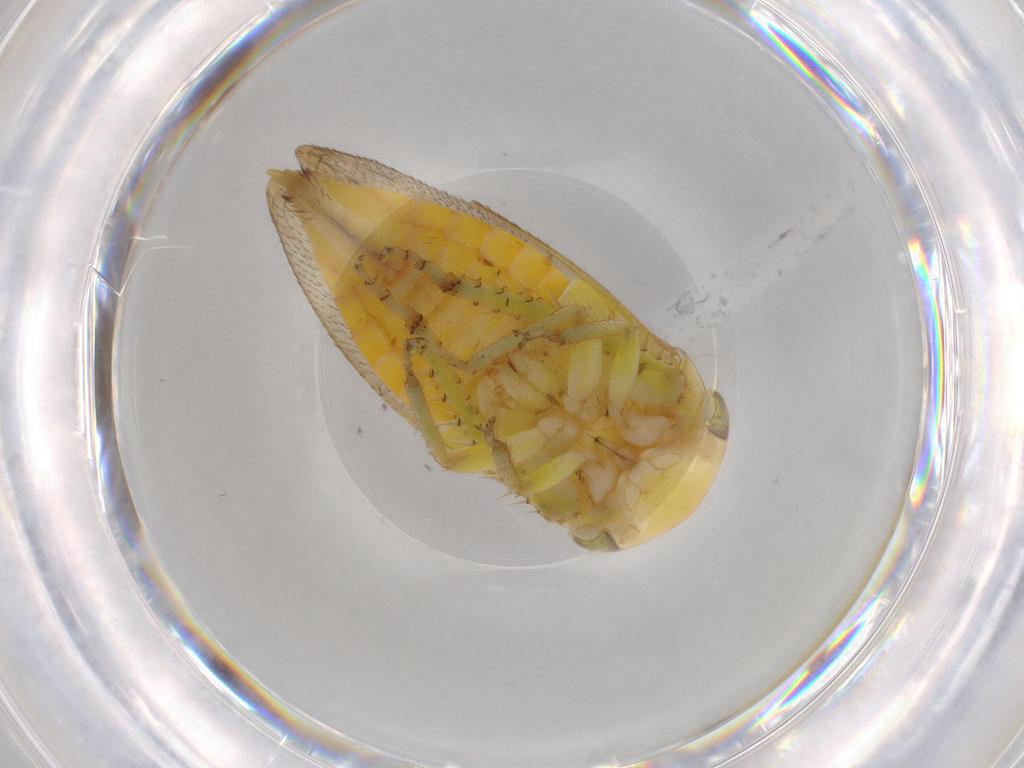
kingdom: Animalia
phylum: Arthropoda
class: Insecta
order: Hemiptera
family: Cicadellidae
